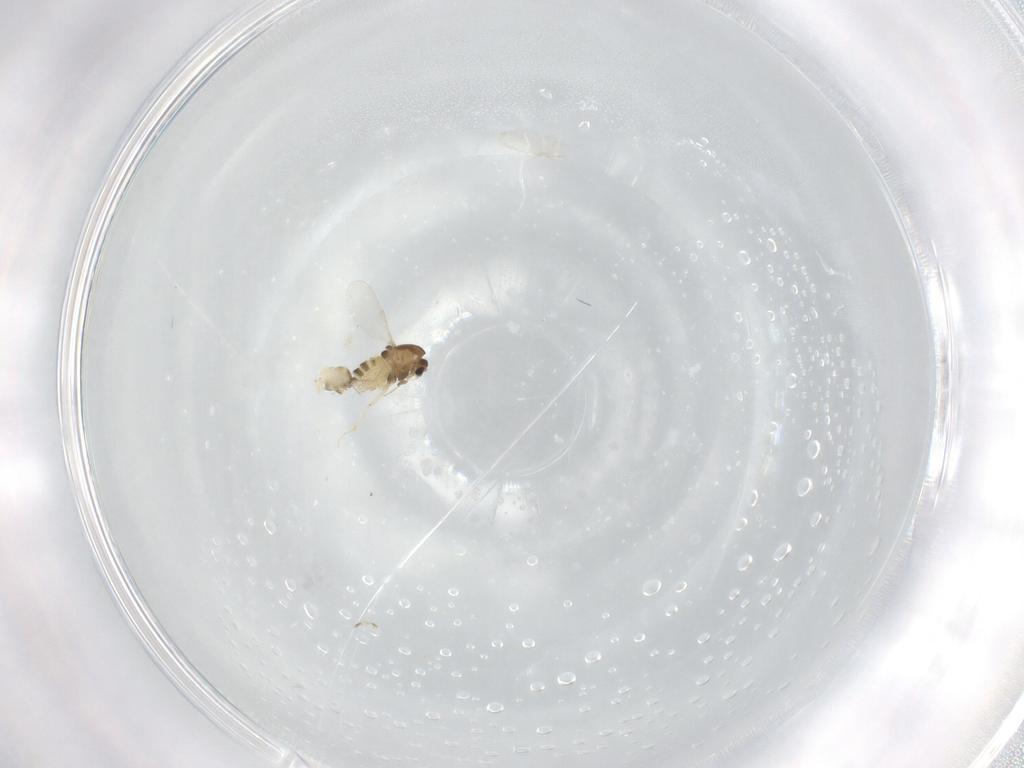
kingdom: Animalia
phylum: Arthropoda
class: Insecta
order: Diptera
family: Chironomidae
